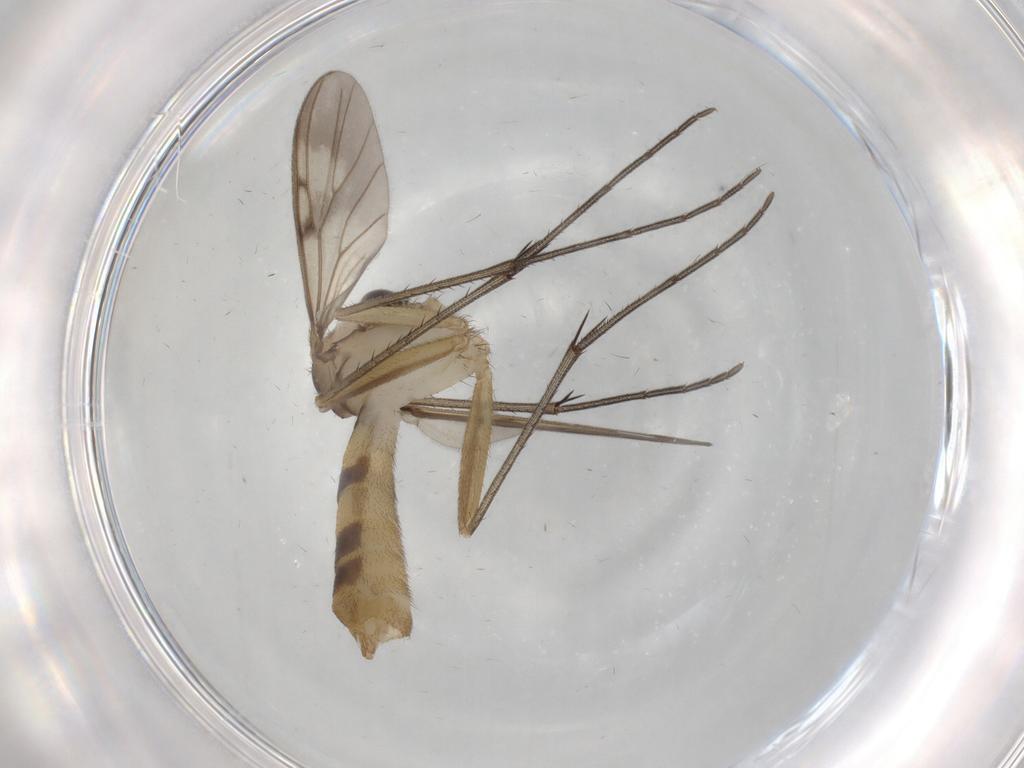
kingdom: Animalia
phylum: Arthropoda
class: Insecta
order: Diptera
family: Mycetophilidae
